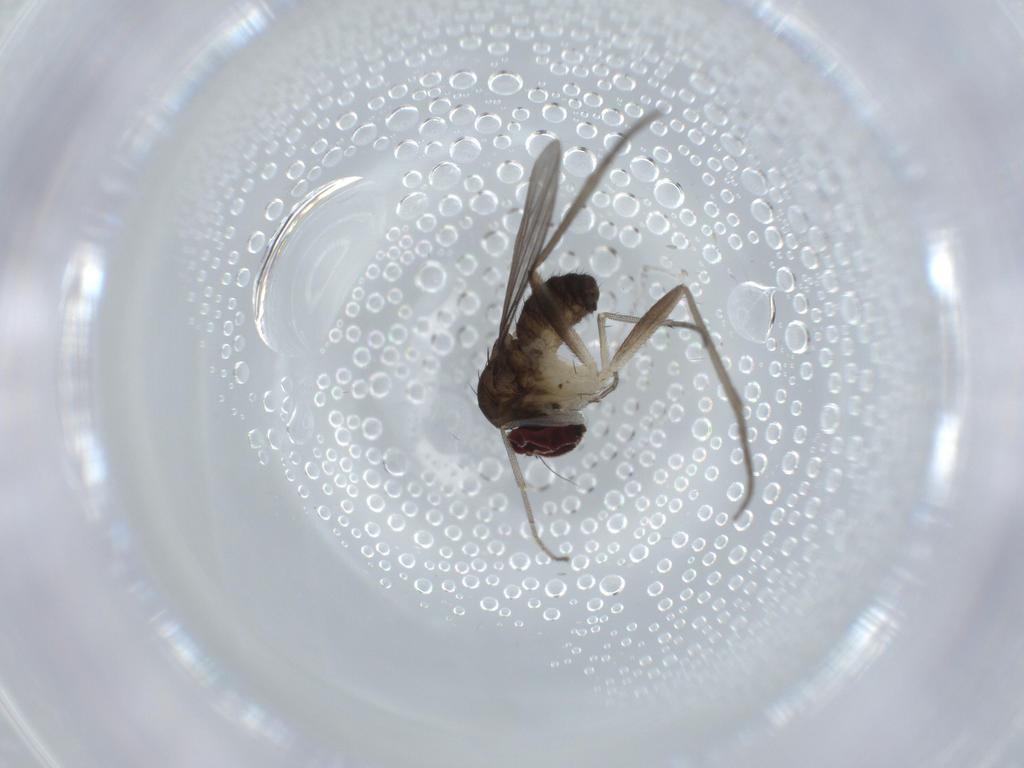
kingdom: Animalia
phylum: Arthropoda
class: Insecta
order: Diptera
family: Dolichopodidae
